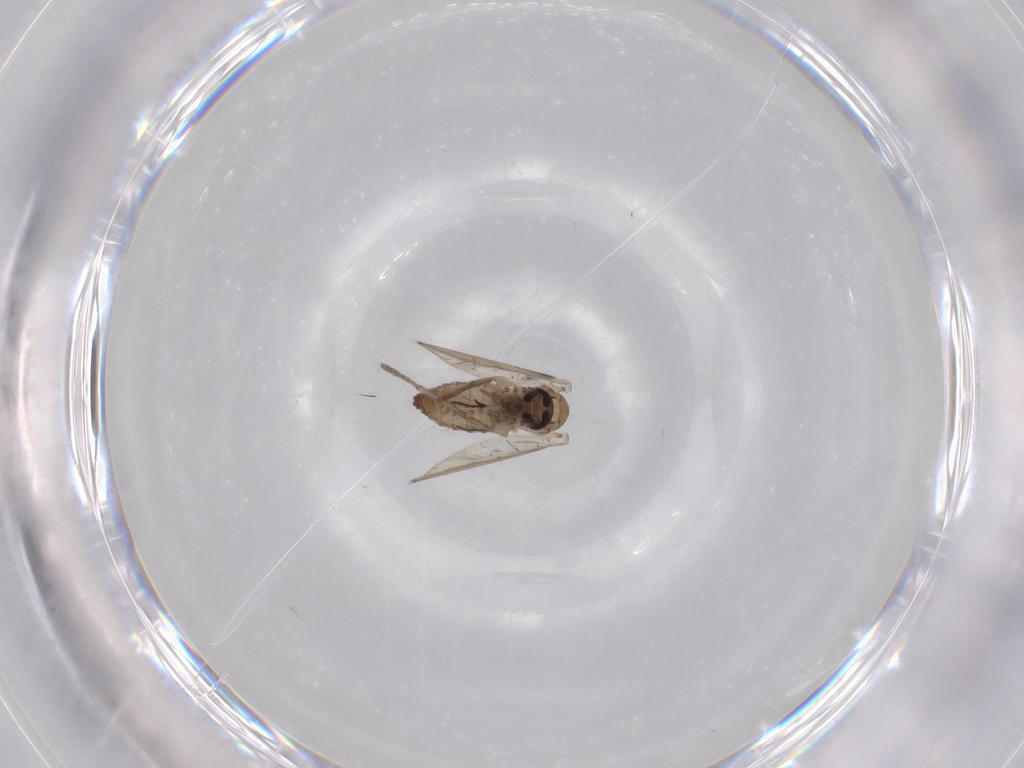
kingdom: Animalia
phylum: Arthropoda
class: Insecta
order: Diptera
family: Psychodidae
